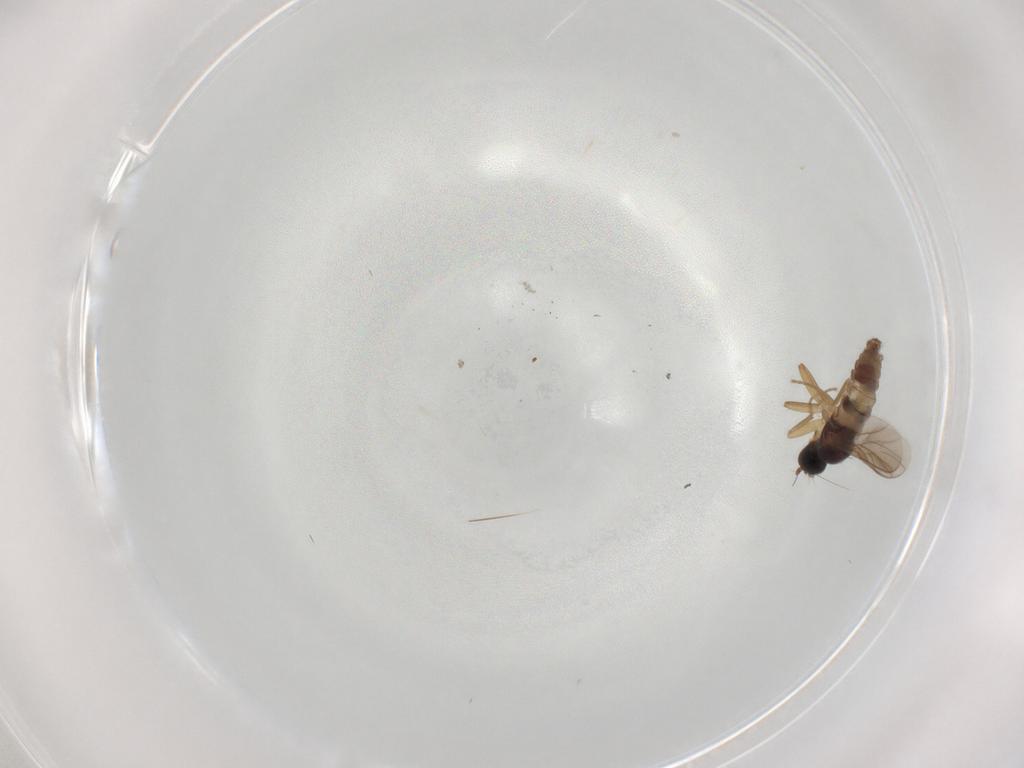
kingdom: Animalia
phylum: Arthropoda
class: Insecta
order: Diptera
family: Hybotidae
